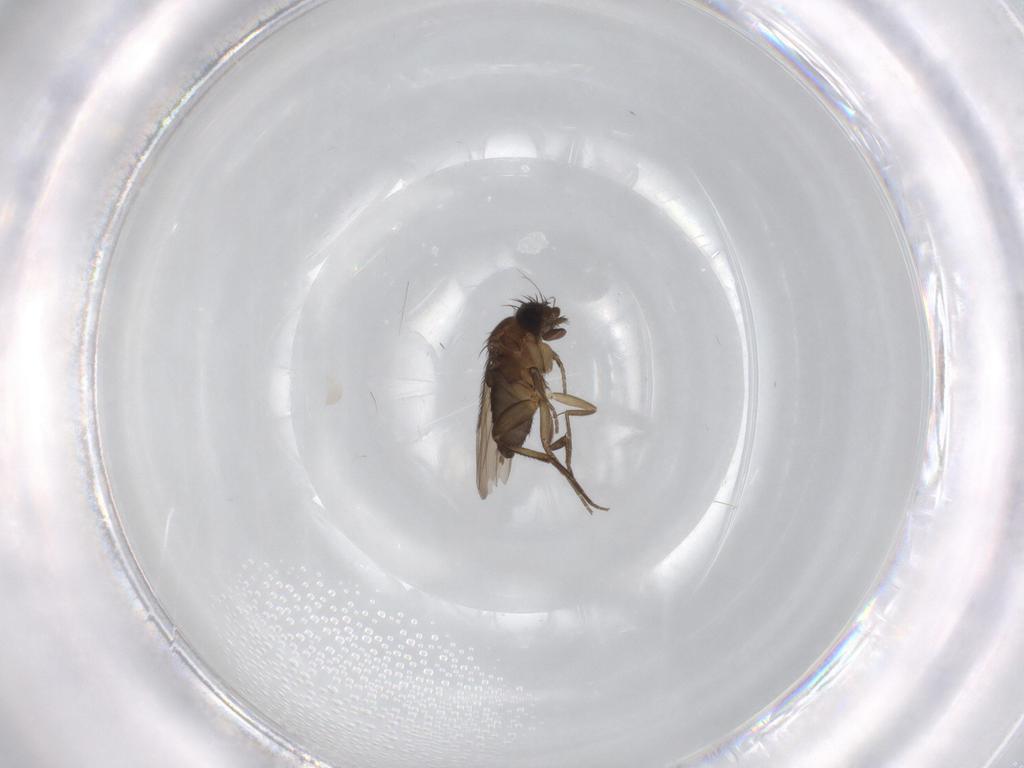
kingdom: Animalia
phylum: Arthropoda
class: Insecta
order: Diptera
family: Phoridae
